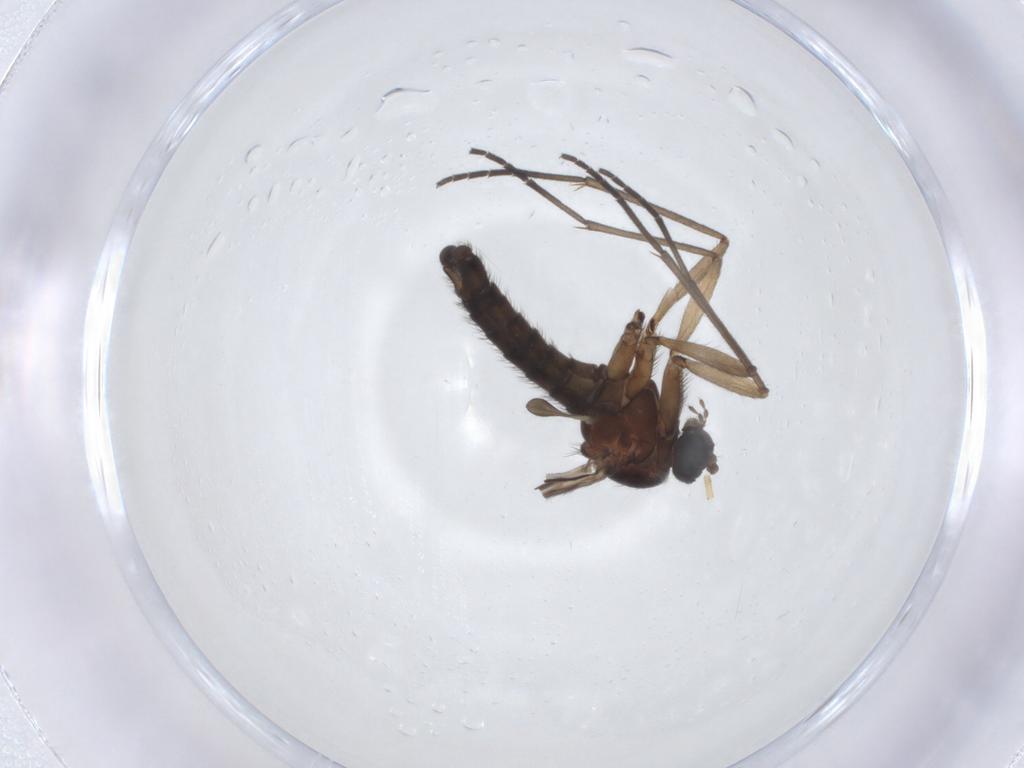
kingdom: Animalia
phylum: Arthropoda
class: Insecta
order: Diptera
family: Sciaridae
